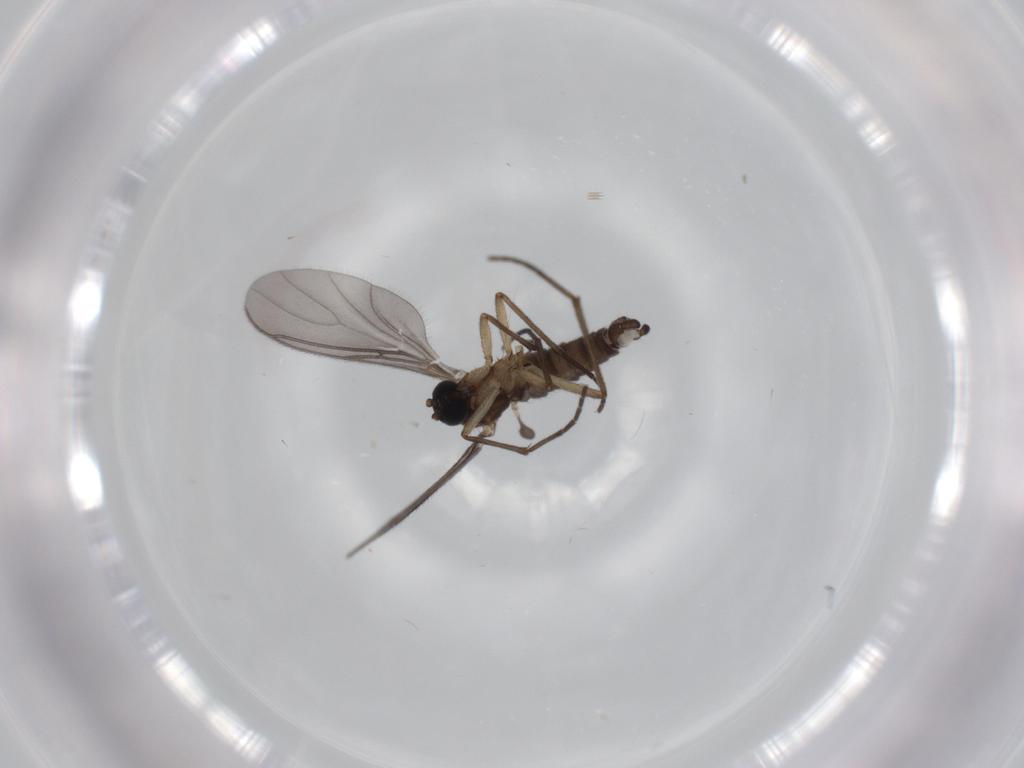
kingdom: Animalia
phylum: Arthropoda
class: Insecta
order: Diptera
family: Sciaridae
